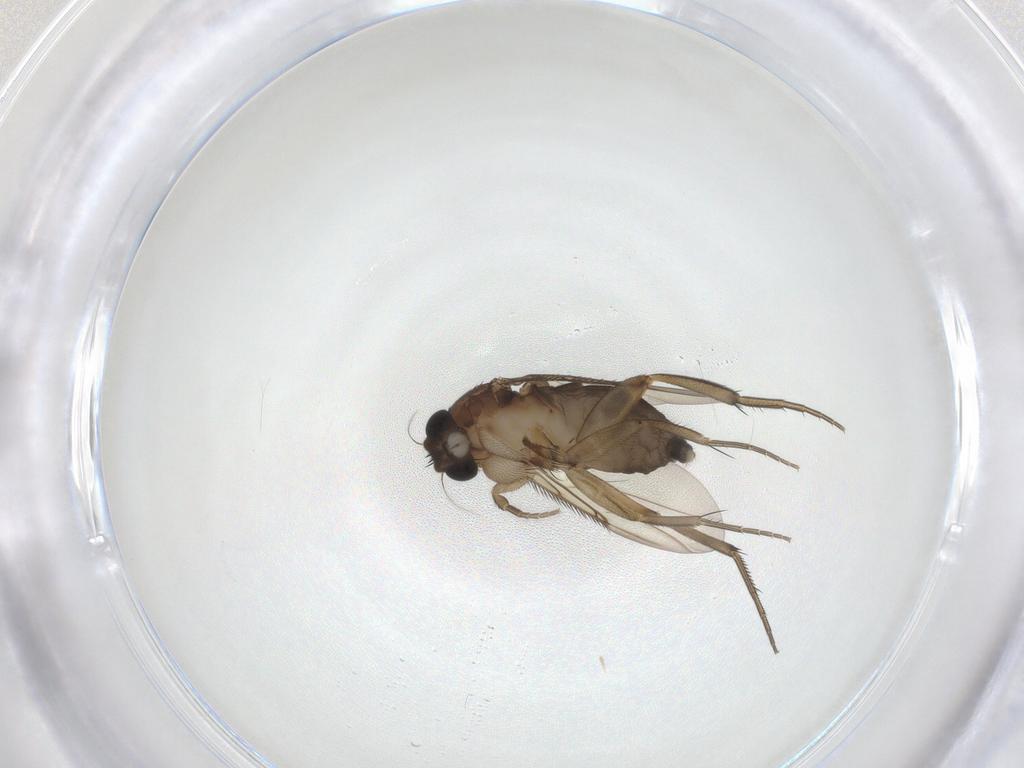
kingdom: Animalia
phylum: Arthropoda
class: Insecta
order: Diptera
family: Phoridae
